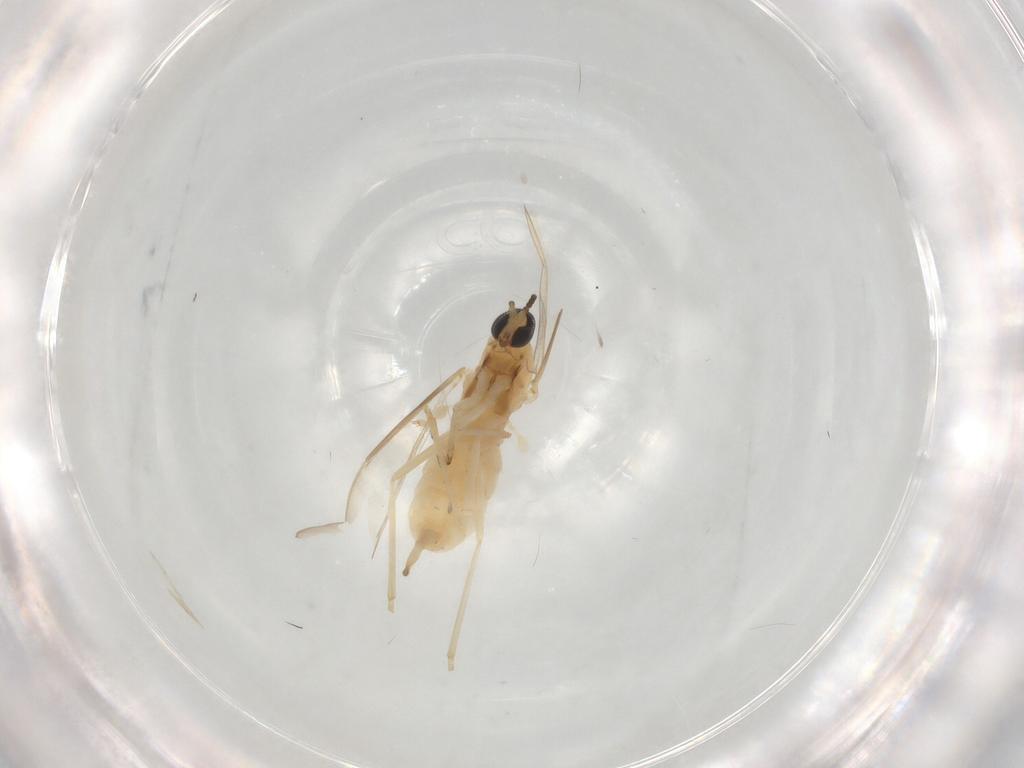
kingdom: Animalia
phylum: Arthropoda
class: Insecta
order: Diptera
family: Cecidomyiidae
